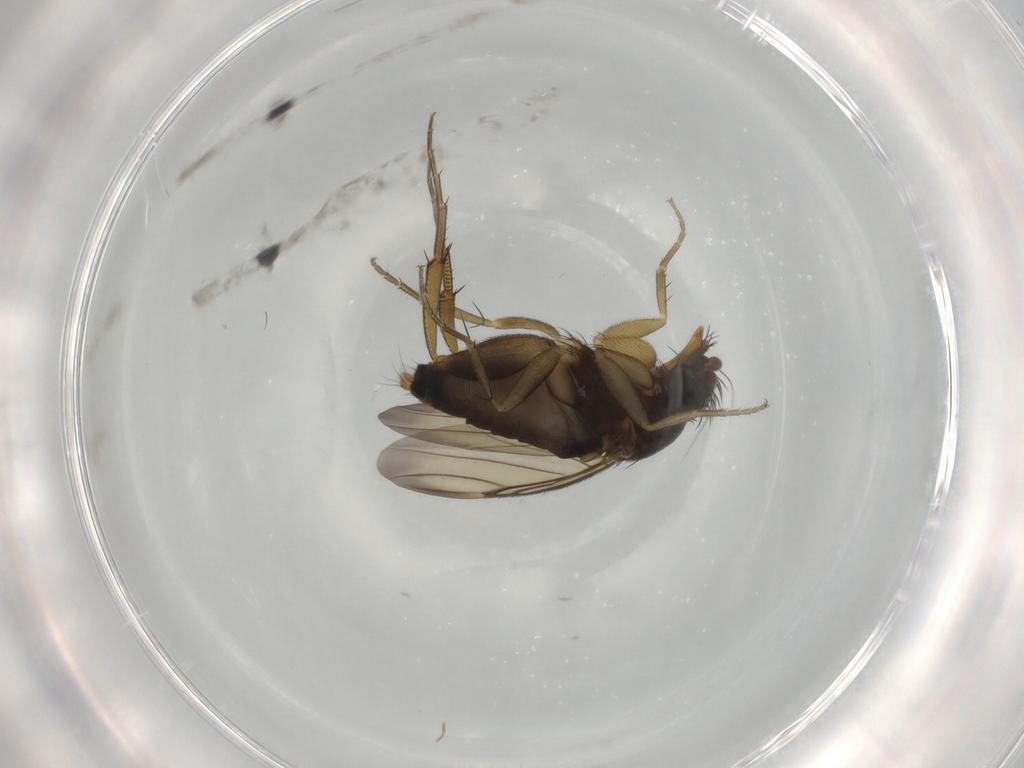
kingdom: Animalia
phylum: Arthropoda
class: Insecta
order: Diptera
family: Cecidomyiidae
